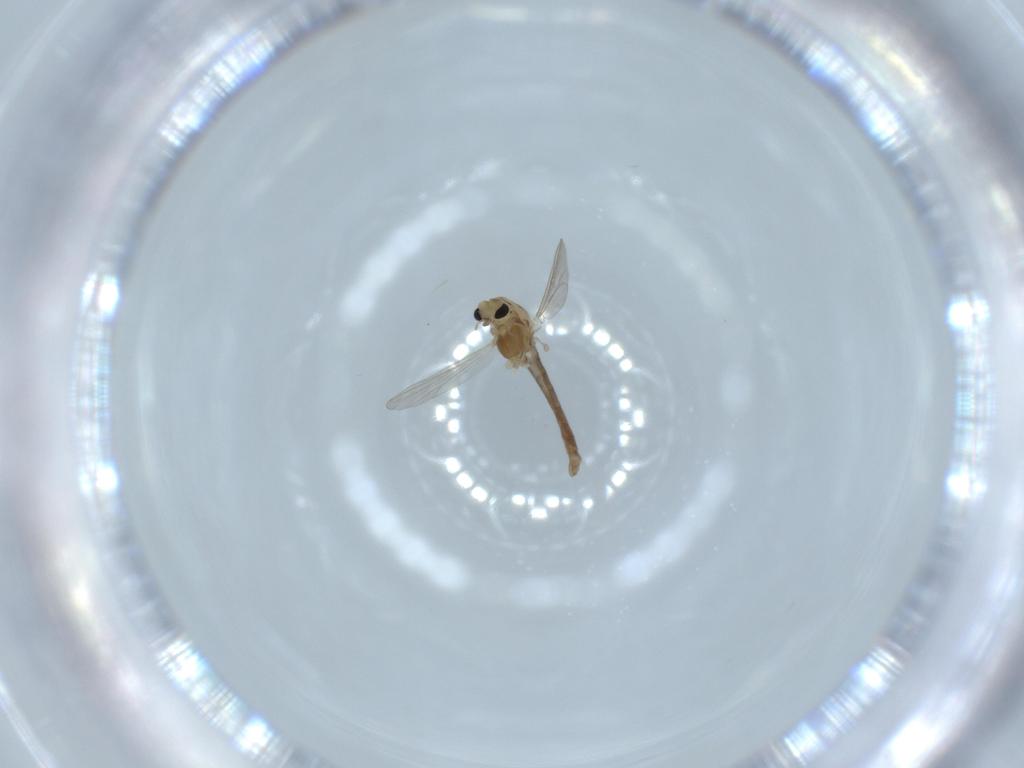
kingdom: Animalia
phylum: Arthropoda
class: Insecta
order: Diptera
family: Chironomidae
